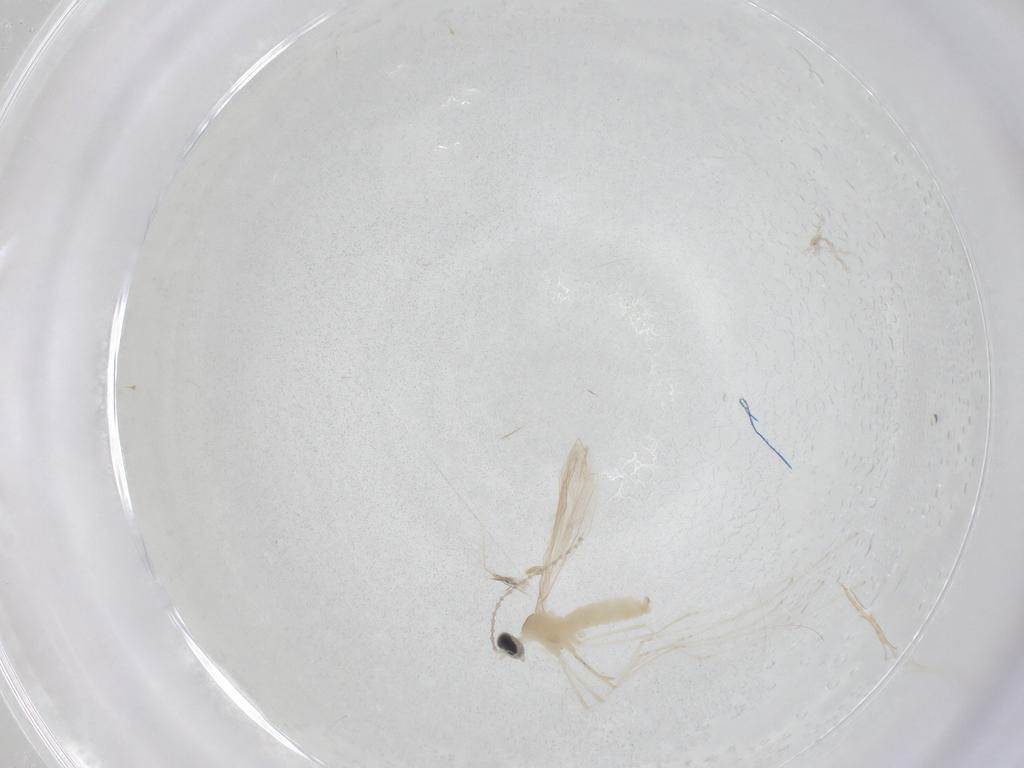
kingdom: Animalia
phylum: Arthropoda
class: Insecta
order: Diptera
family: Cecidomyiidae
